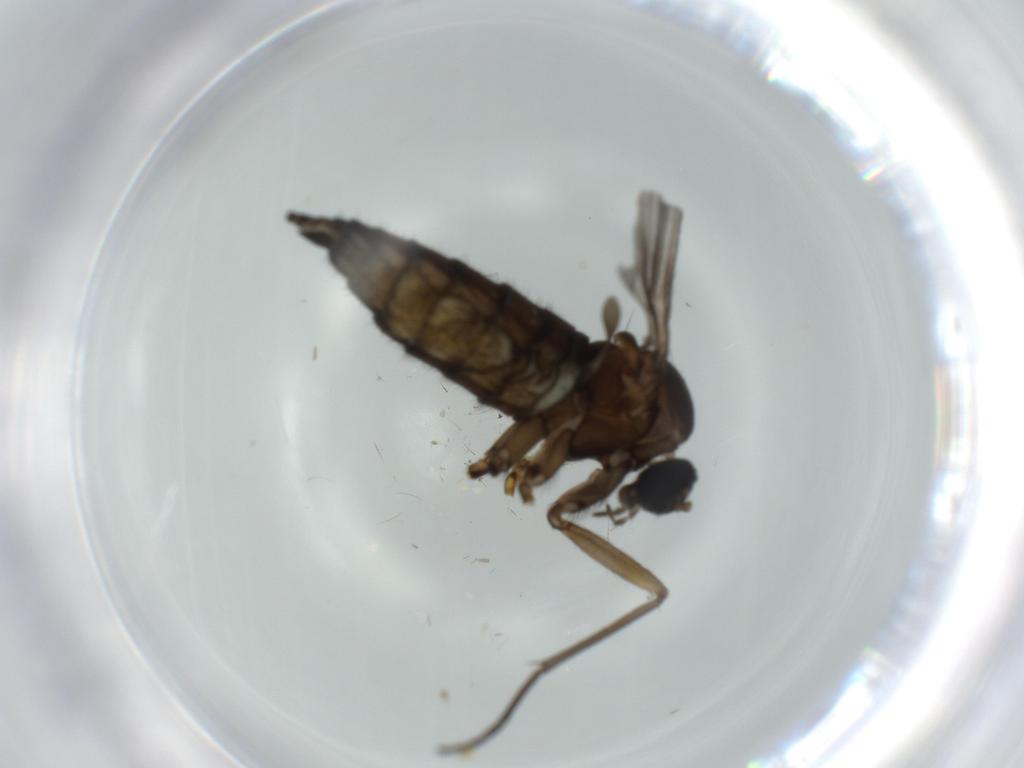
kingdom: Animalia
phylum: Arthropoda
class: Insecta
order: Diptera
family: Sciaridae
